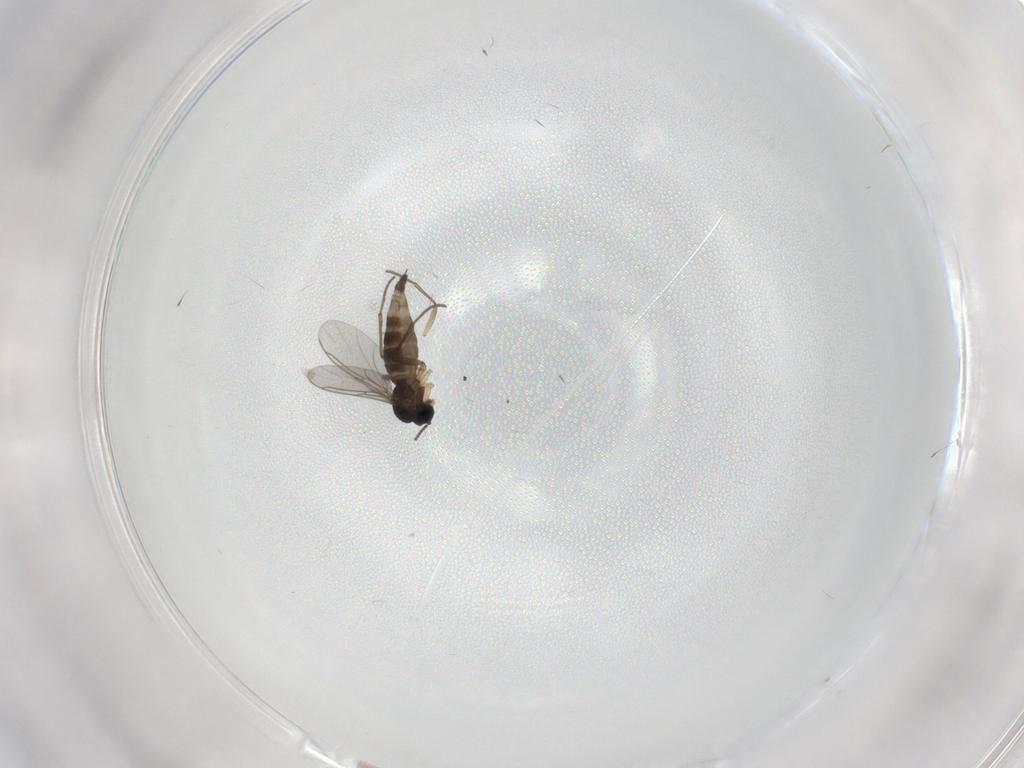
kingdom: Animalia
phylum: Arthropoda
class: Insecta
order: Diptera
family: Sciaridae
